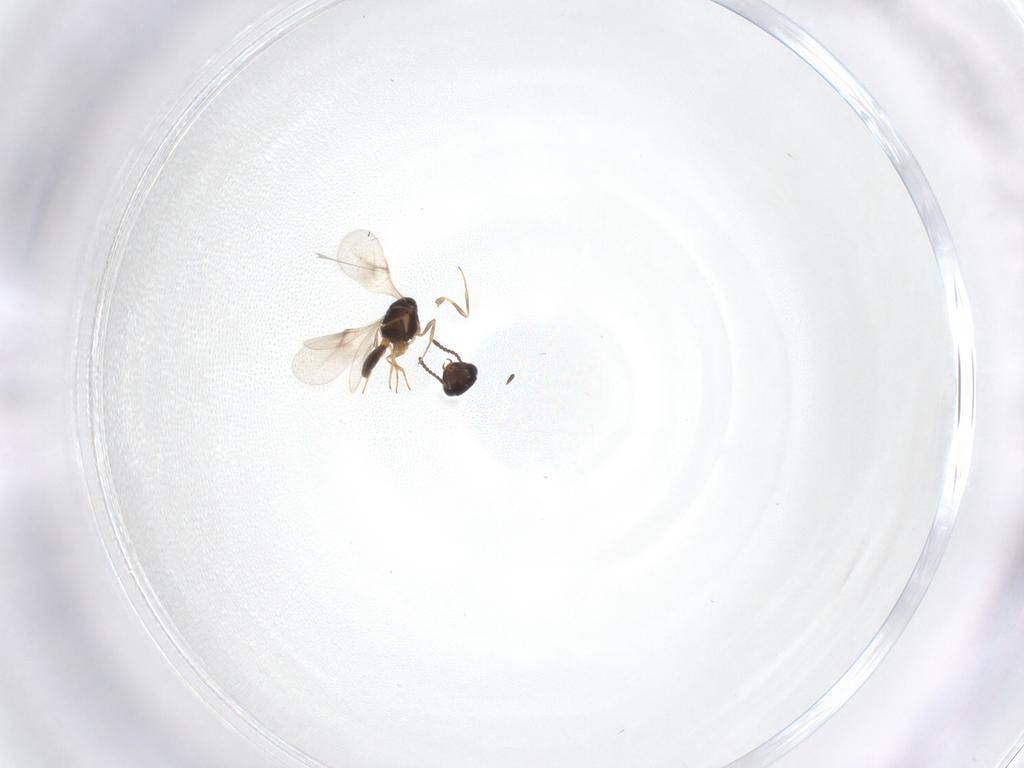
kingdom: Animalia
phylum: Arthropoda
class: Insecta
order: Hymenoptera
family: Scelionidae
